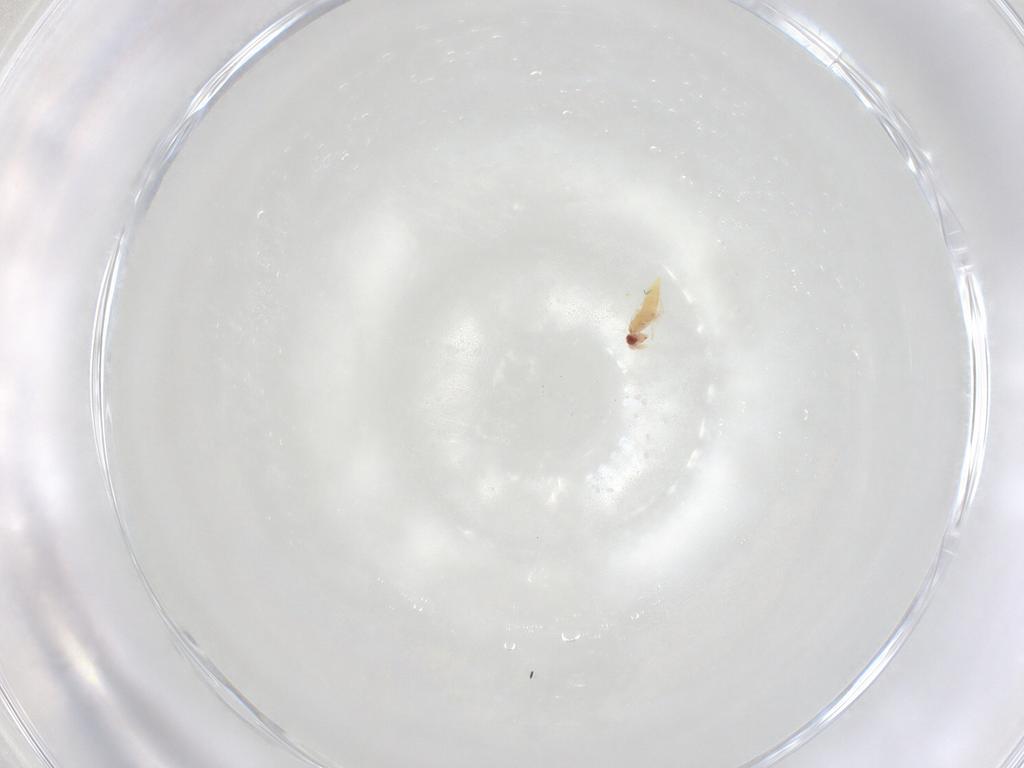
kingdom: Animalia
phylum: Arthropoda
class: Insecta
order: Hymenoptera
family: Trichogrammatidae
